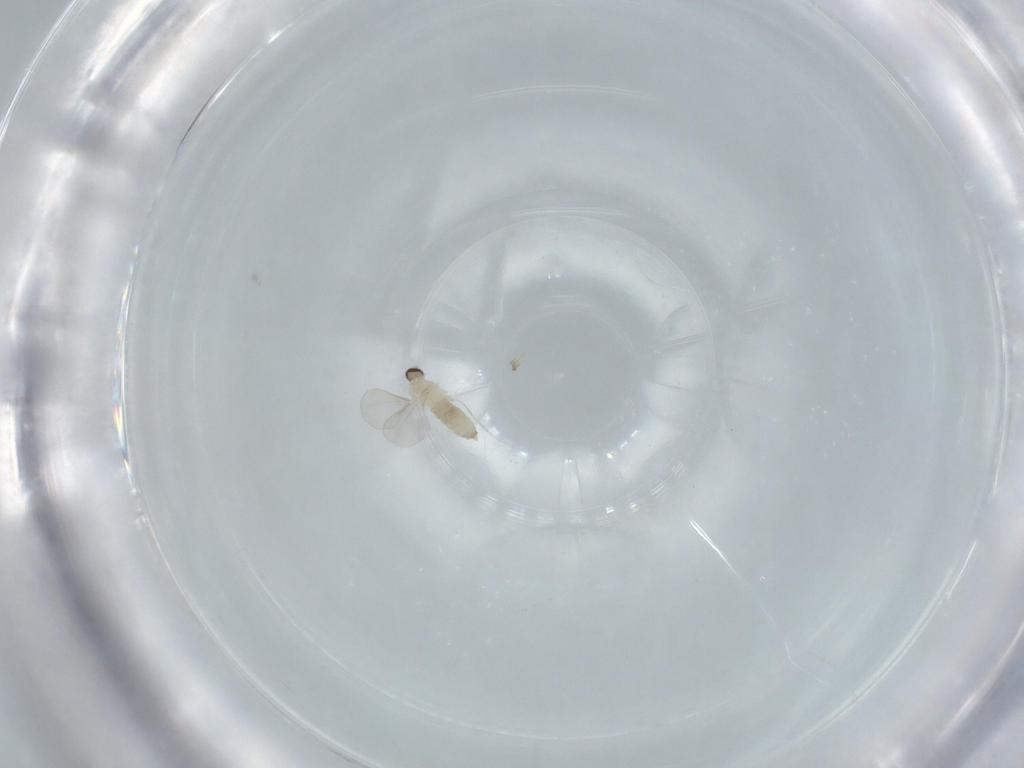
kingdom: Animalia
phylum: Arthropoda
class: Insecta
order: Diptera
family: Cecidomyiidae
